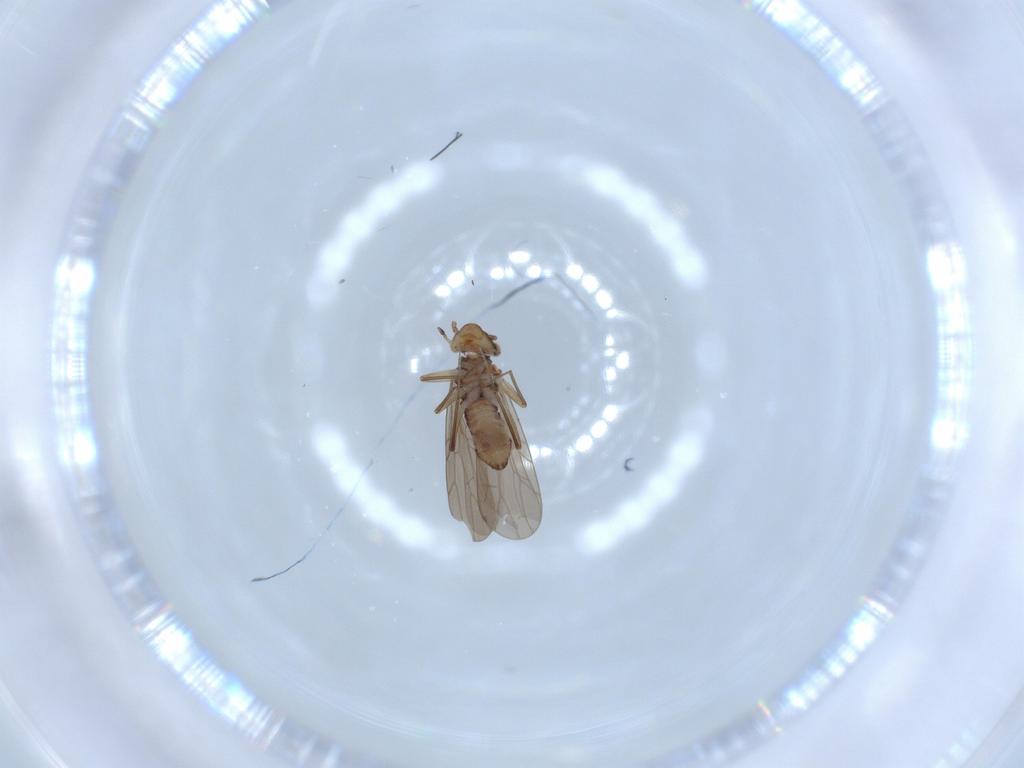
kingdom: Animalia
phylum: Arthropoda
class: Insecta
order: Psocodea
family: Lepidopsocidae
